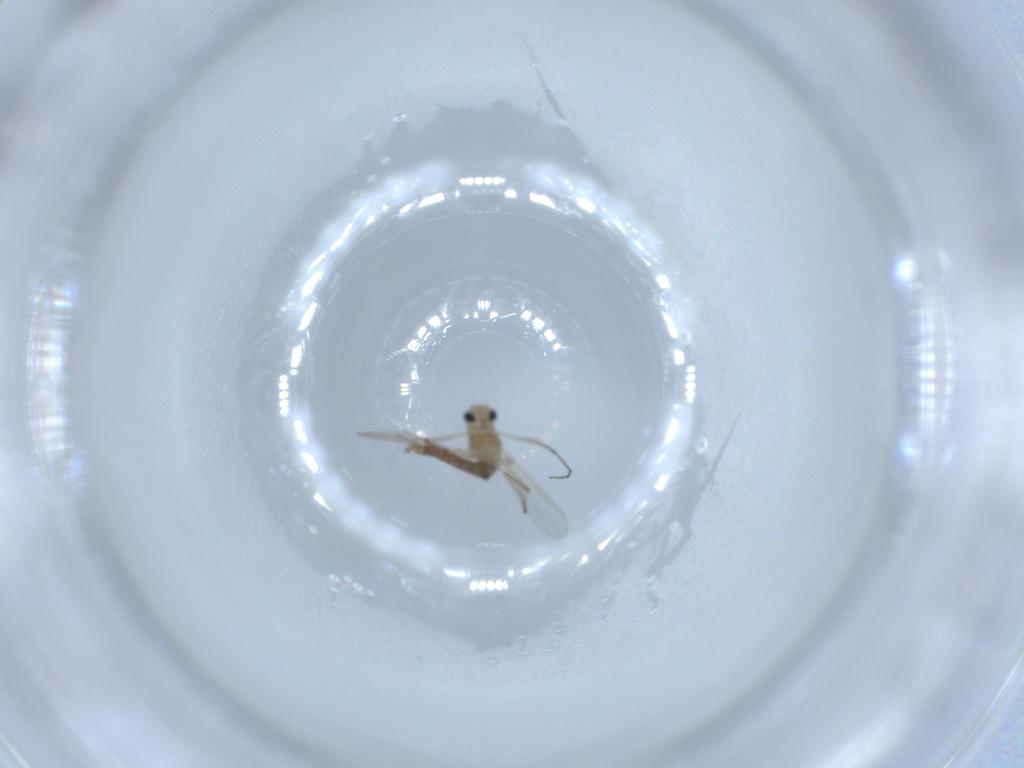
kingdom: Animalia
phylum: Arthropoda
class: Insecta
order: Diptera
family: Chironomidae
